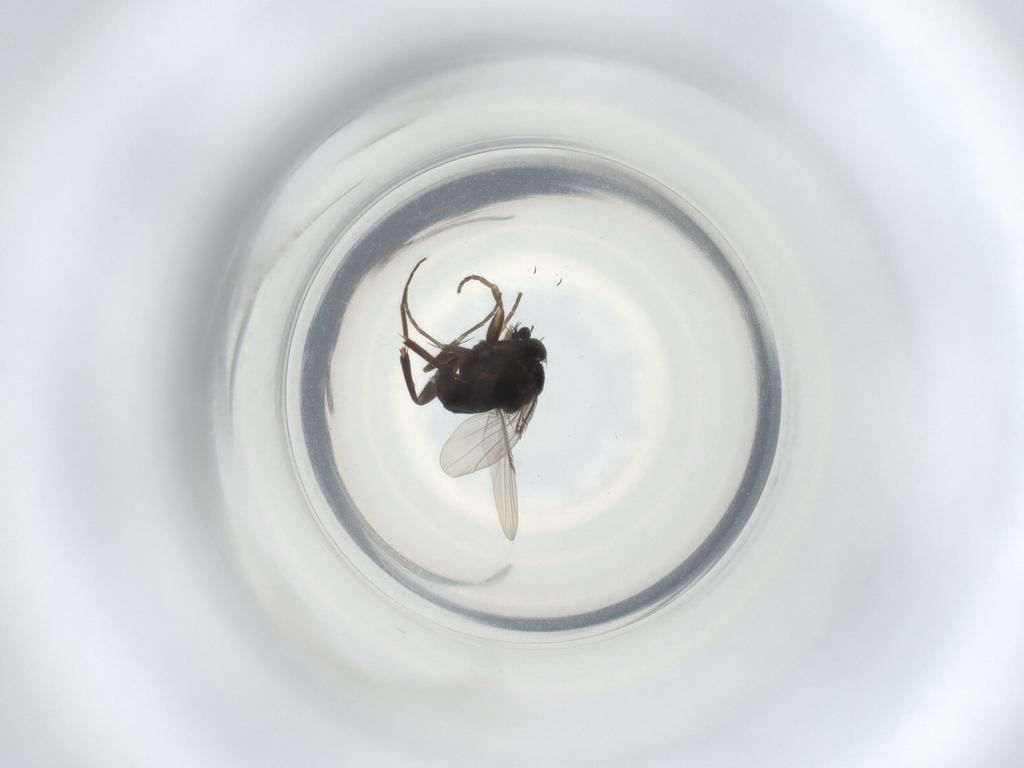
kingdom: Animalia
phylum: Arthropoda
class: Insecta
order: Diptera
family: Phoridae
